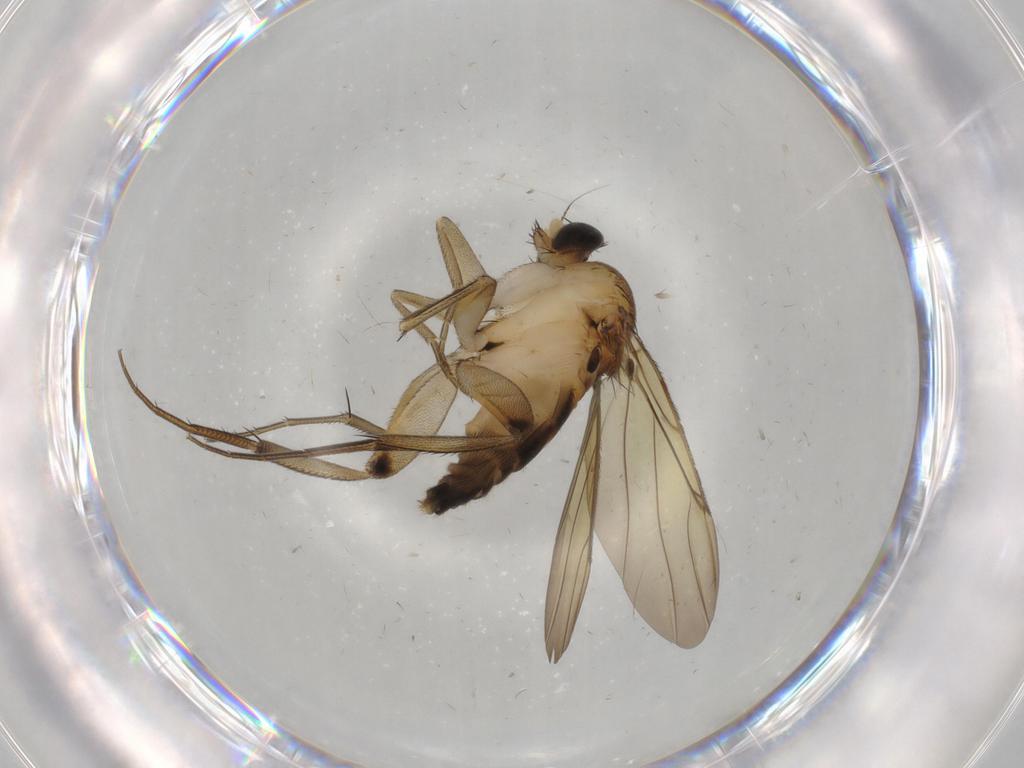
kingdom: Animalia
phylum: Arthropoda
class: Insecta
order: Diptera
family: Phoridae
